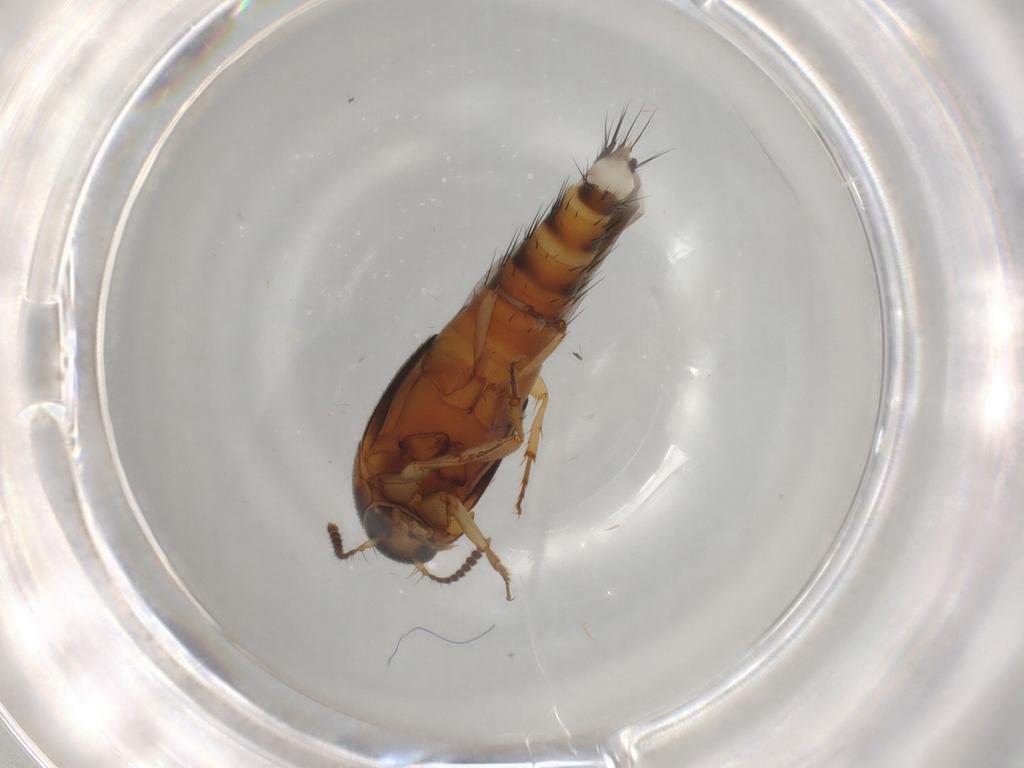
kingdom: Animalia
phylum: Arthropoda
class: Insecta
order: Coleoptera
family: Staphylinidae
